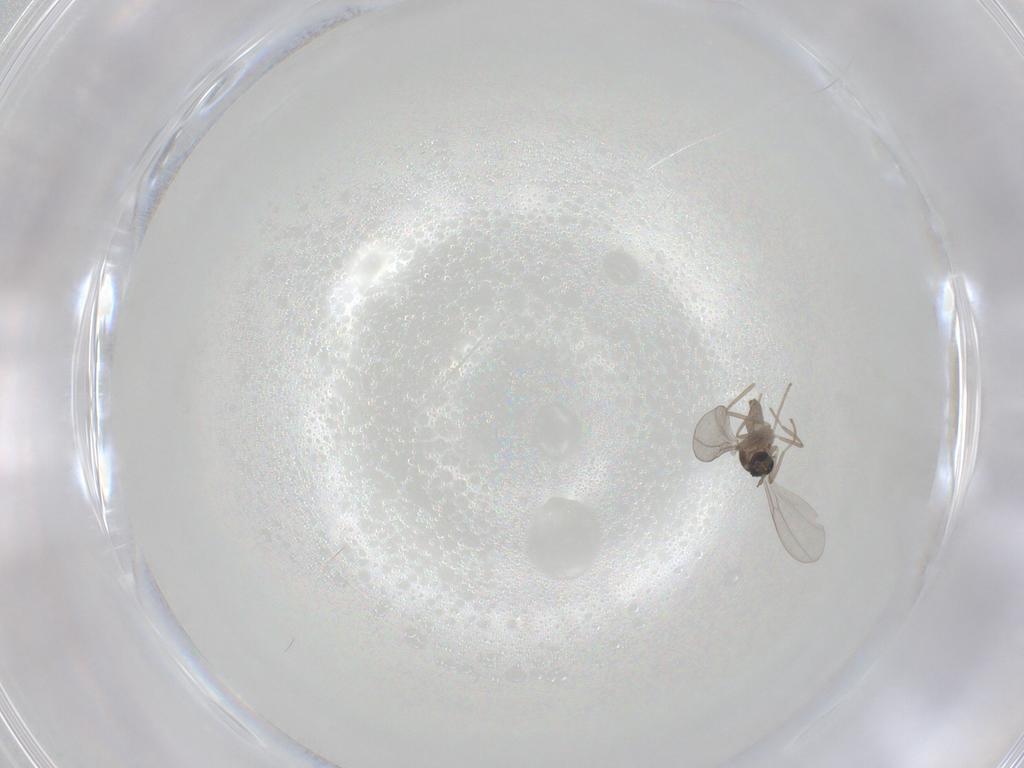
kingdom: Animalia
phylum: Arthropoda
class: Insecta
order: Diptera
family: Cecidomyiidae
